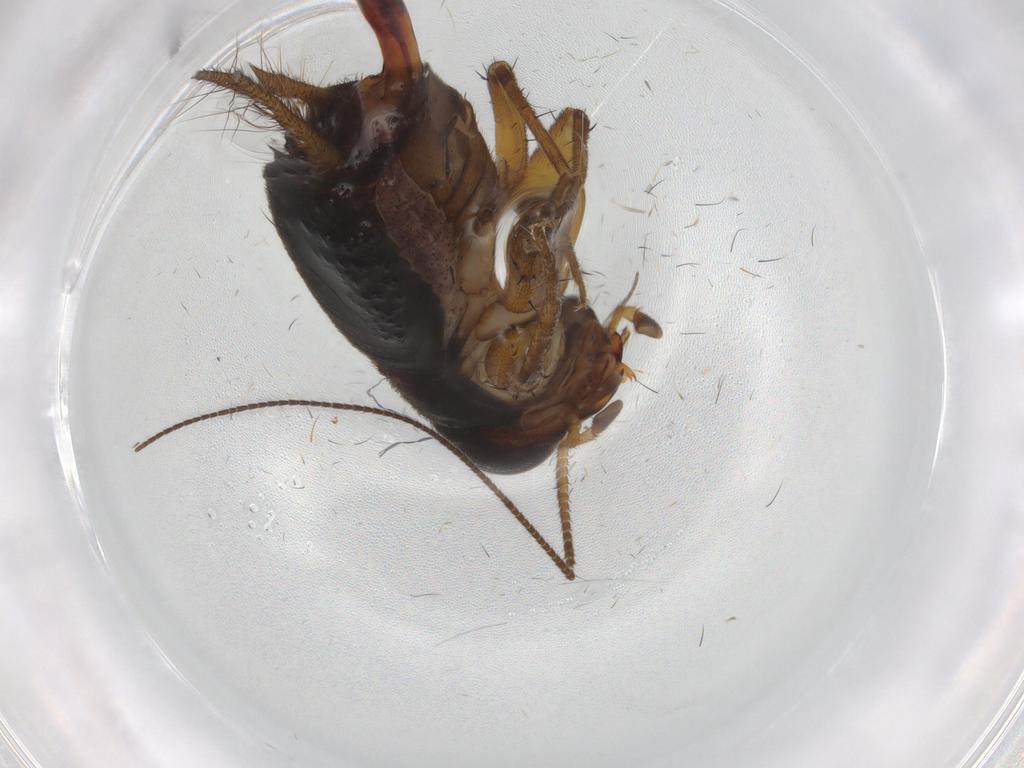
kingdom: Animalia
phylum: Arthropoda
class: Insecta
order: Orthoptera
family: Trigonidiidae
